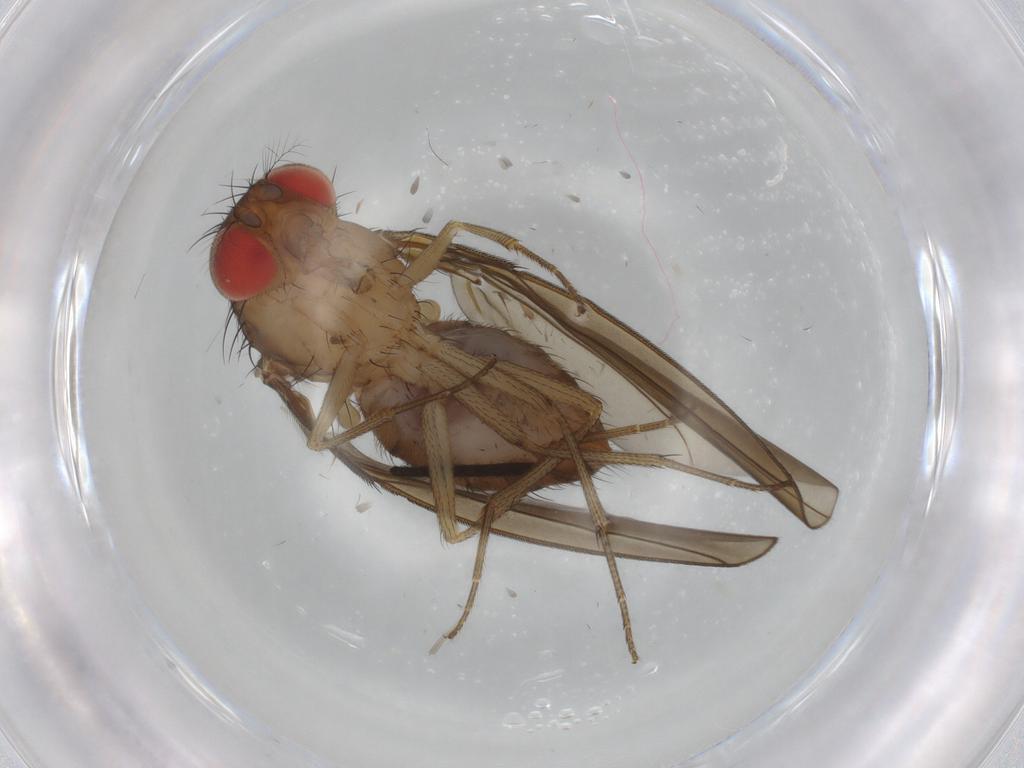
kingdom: Animalia
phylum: Arthropoda
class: Insecta
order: Diptera
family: Drosophilidae
